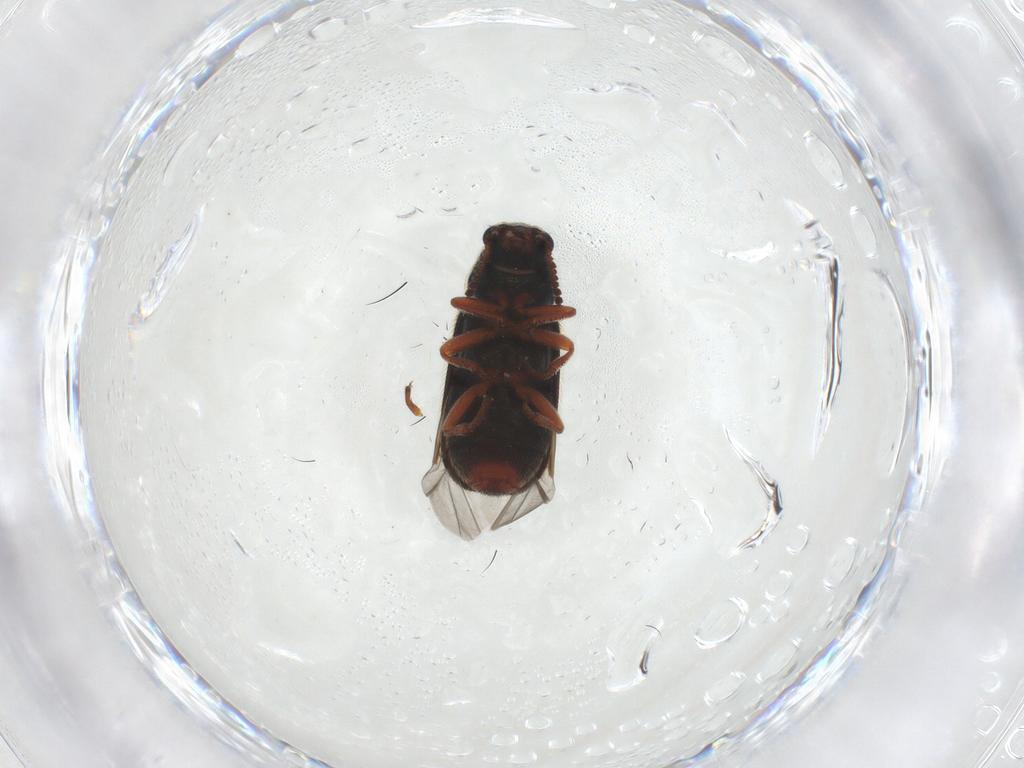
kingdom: Animalia
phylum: Arthropoda
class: Insecta
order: Coleoptera
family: Melyridae
